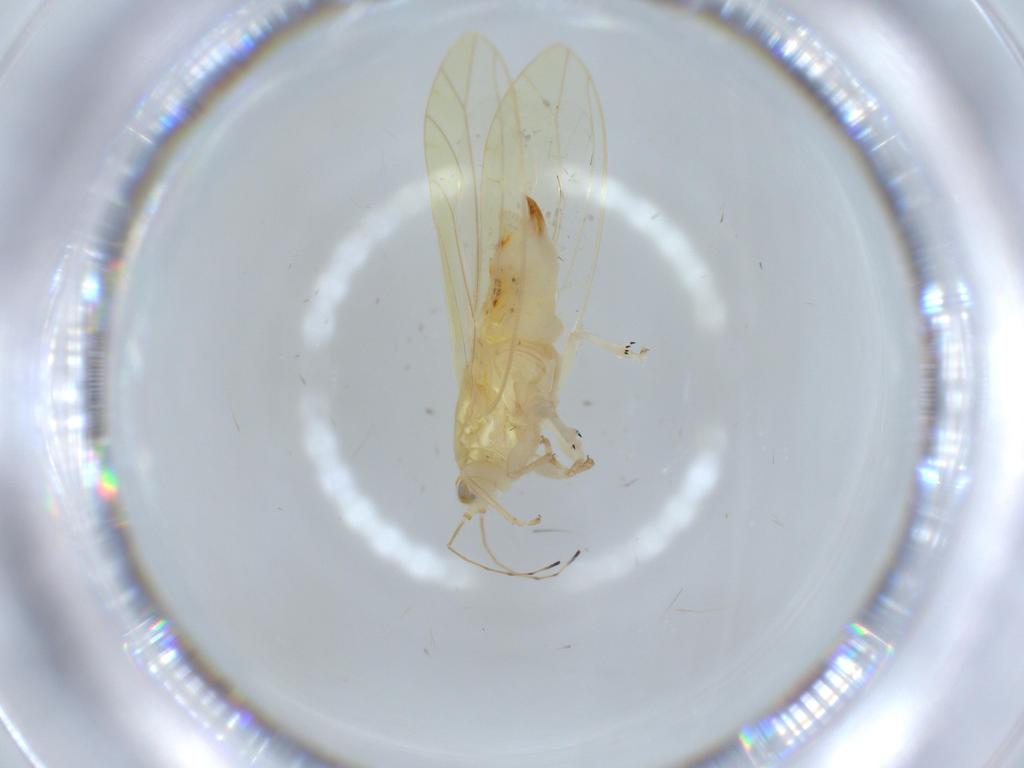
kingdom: Animalia
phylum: Arthropoda
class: Insecta
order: Hemiptera
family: Triozidae
